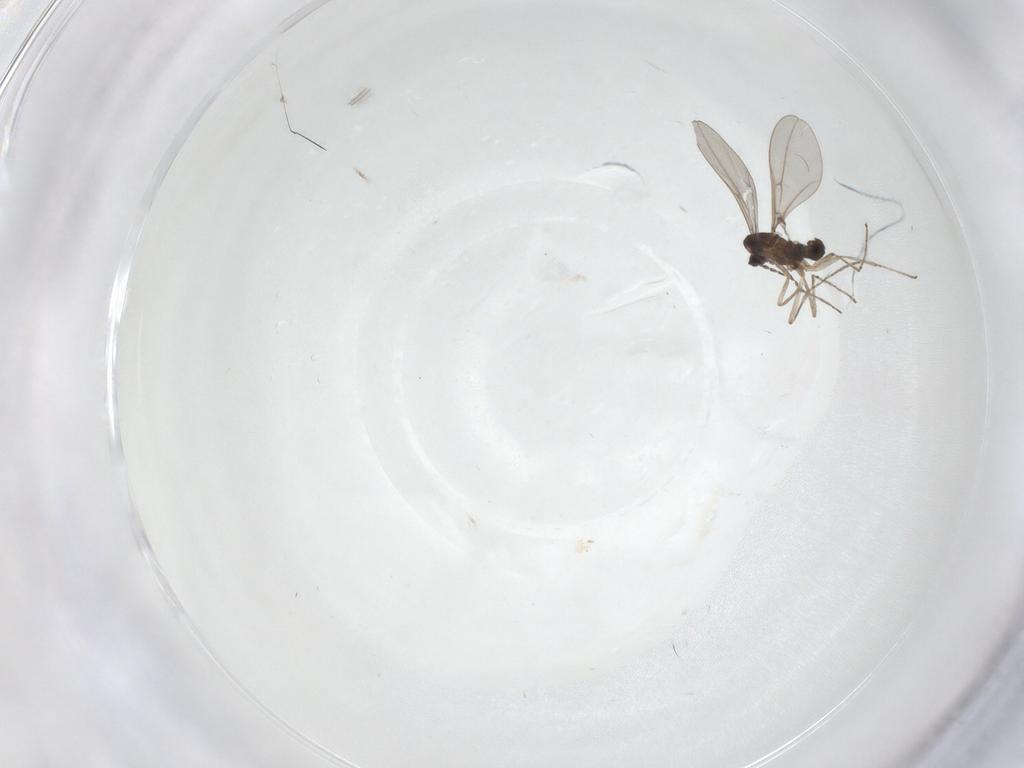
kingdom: Animalia
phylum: Arthropoda
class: Insecta
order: Diptera
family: Cecidomyiidae
